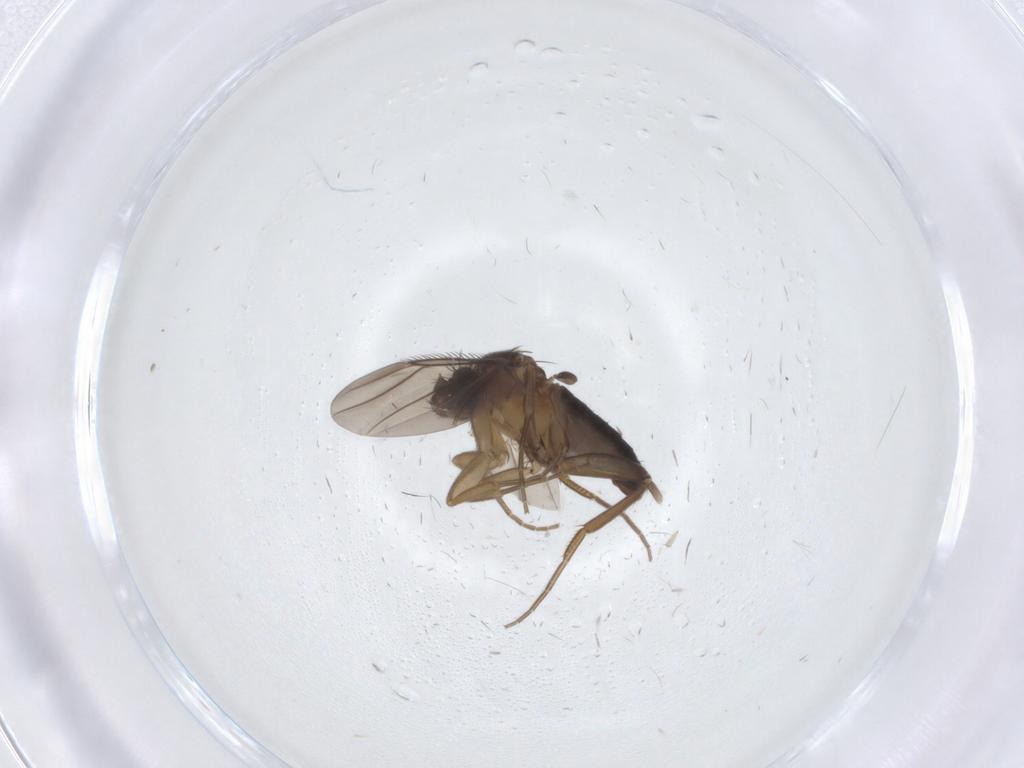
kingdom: Animalia
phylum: Arthropoda
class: Insecta
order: Diptera
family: Phoridae
